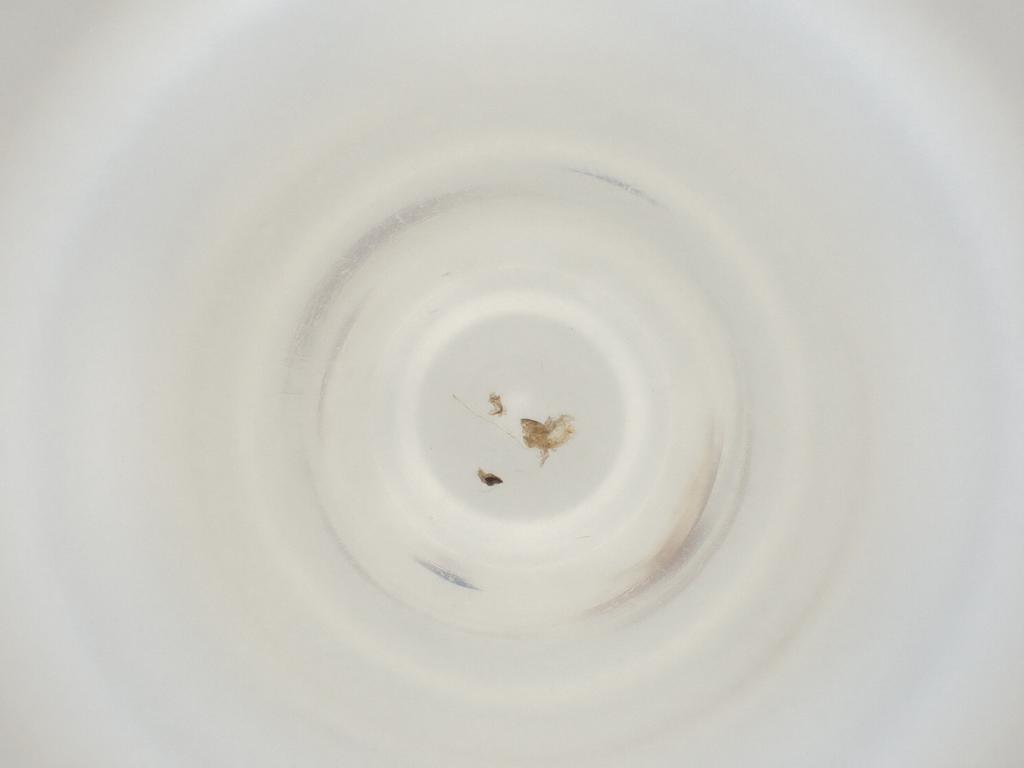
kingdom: Animalia
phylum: Arthropoda
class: Insecta
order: Diptera
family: Cecidomyiidae
